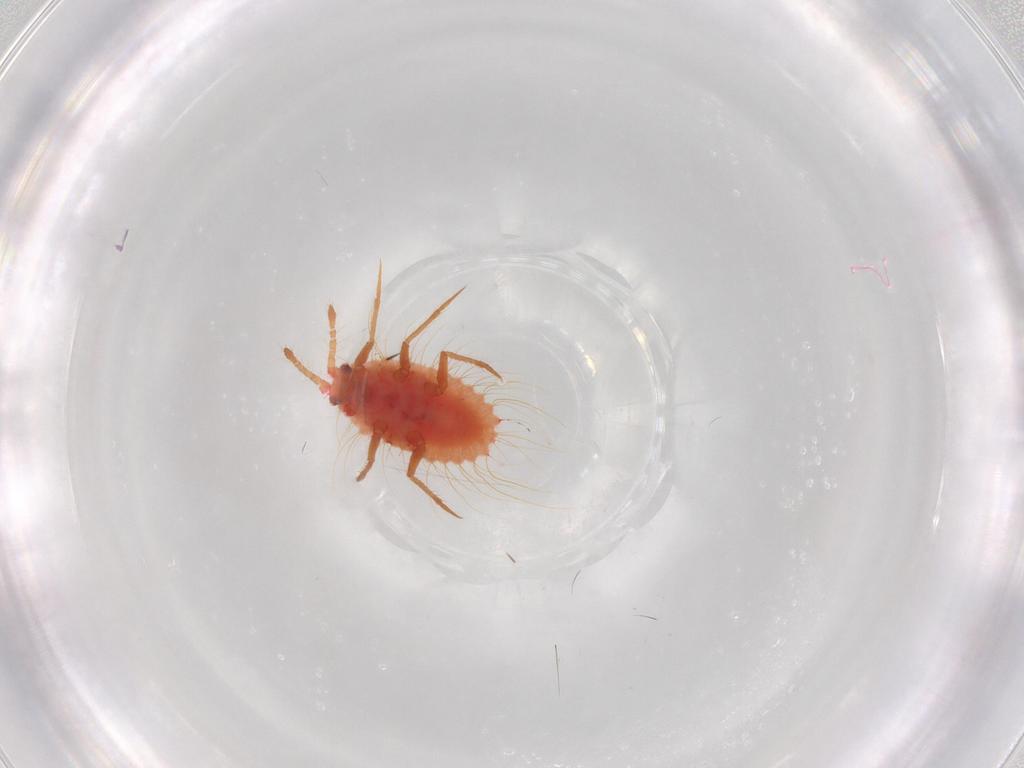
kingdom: Animalia
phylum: Arthropoda
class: Insecta
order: Hemiptera
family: Monophlebidae
